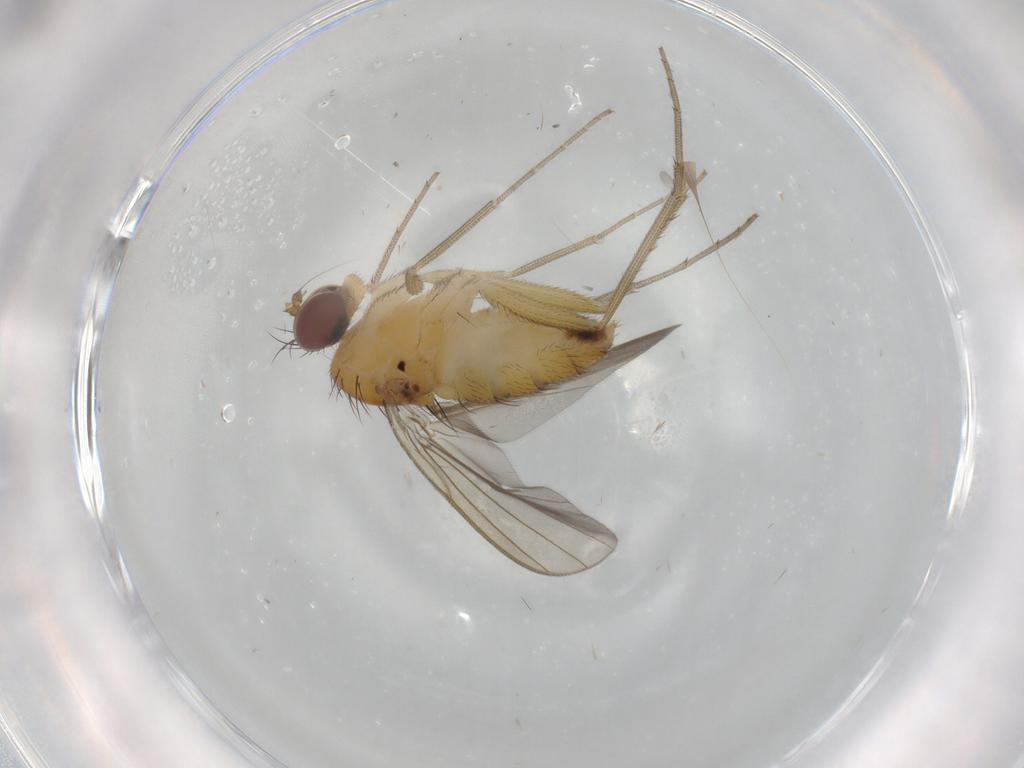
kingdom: Animalia
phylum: Arthropoda
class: Insecta
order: Diptera
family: Dolichopodidae
